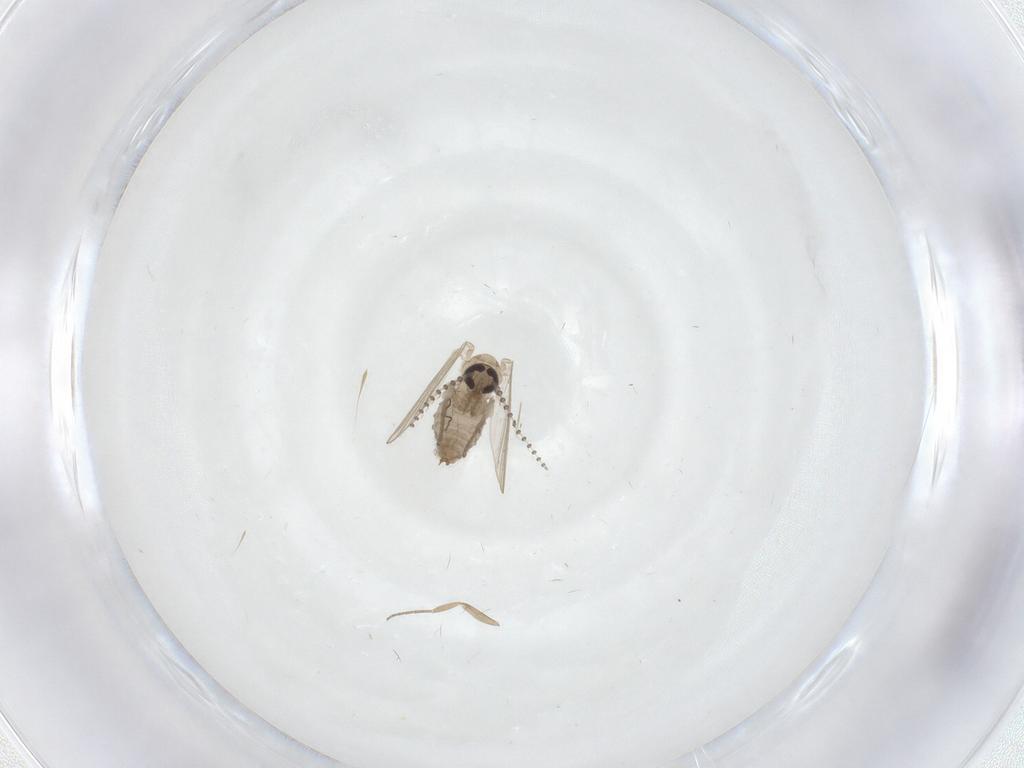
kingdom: Animalia
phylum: Arthropoda
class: Insecta
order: Diptera
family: Psychodidae
